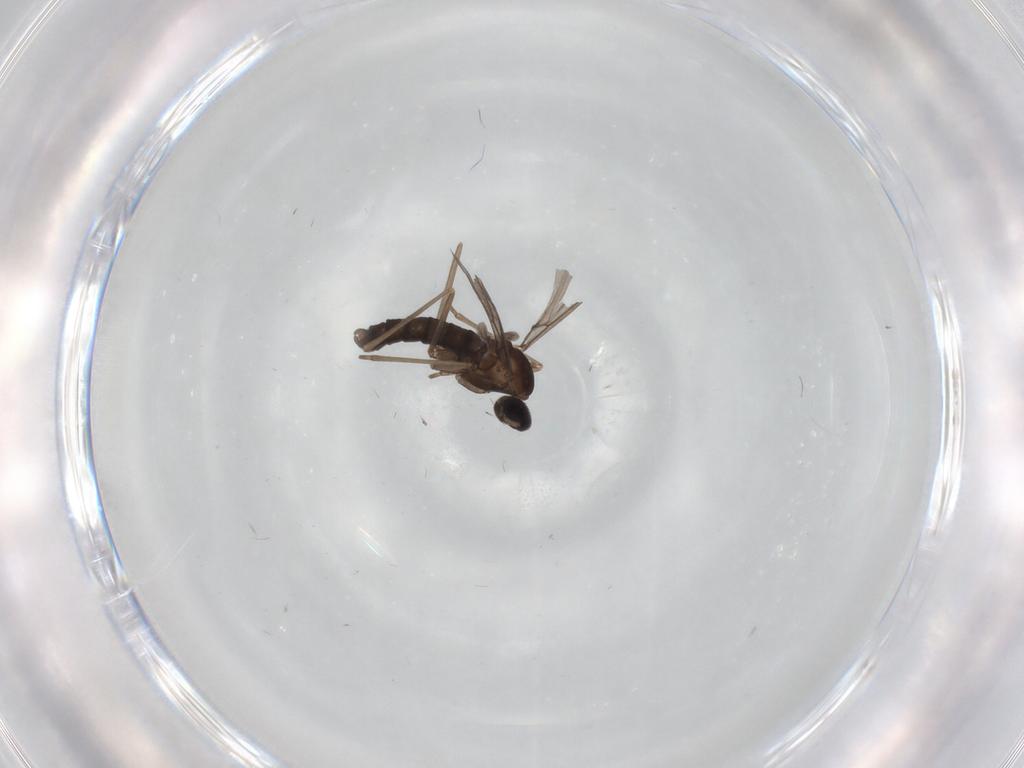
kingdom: Animalia
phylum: Arthropoda
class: Insecta
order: Diptera
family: Cecidomyiidae
